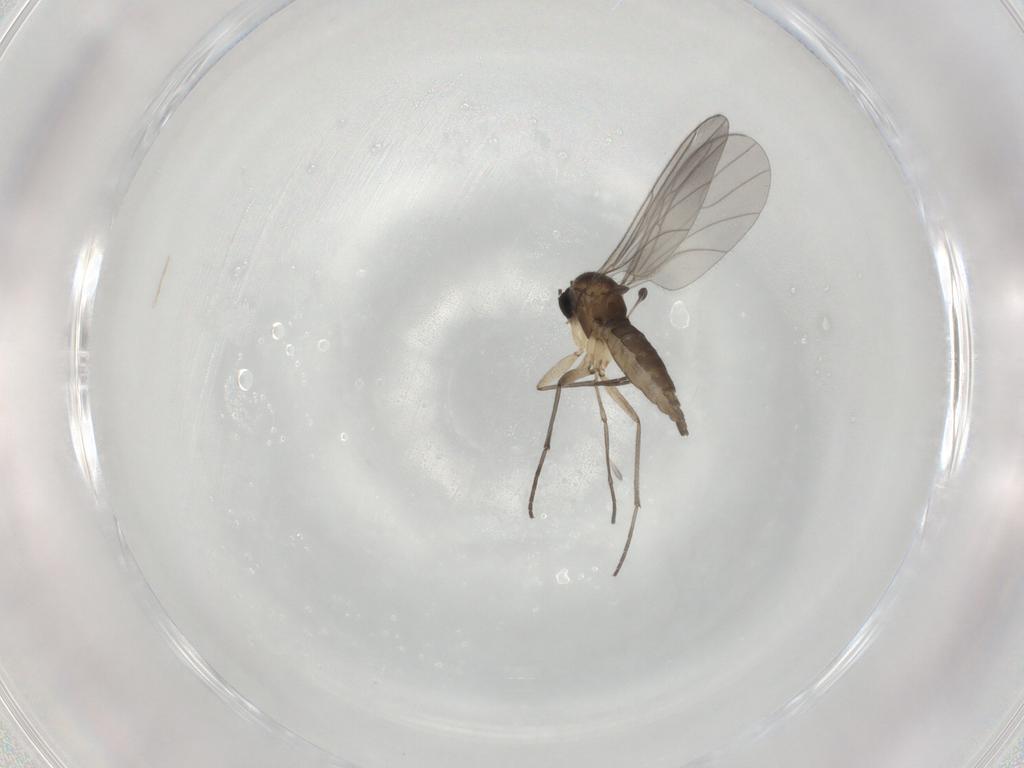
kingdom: Animalia
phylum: Arthropoda
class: Insecta
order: Diptera
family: Sciaridae
